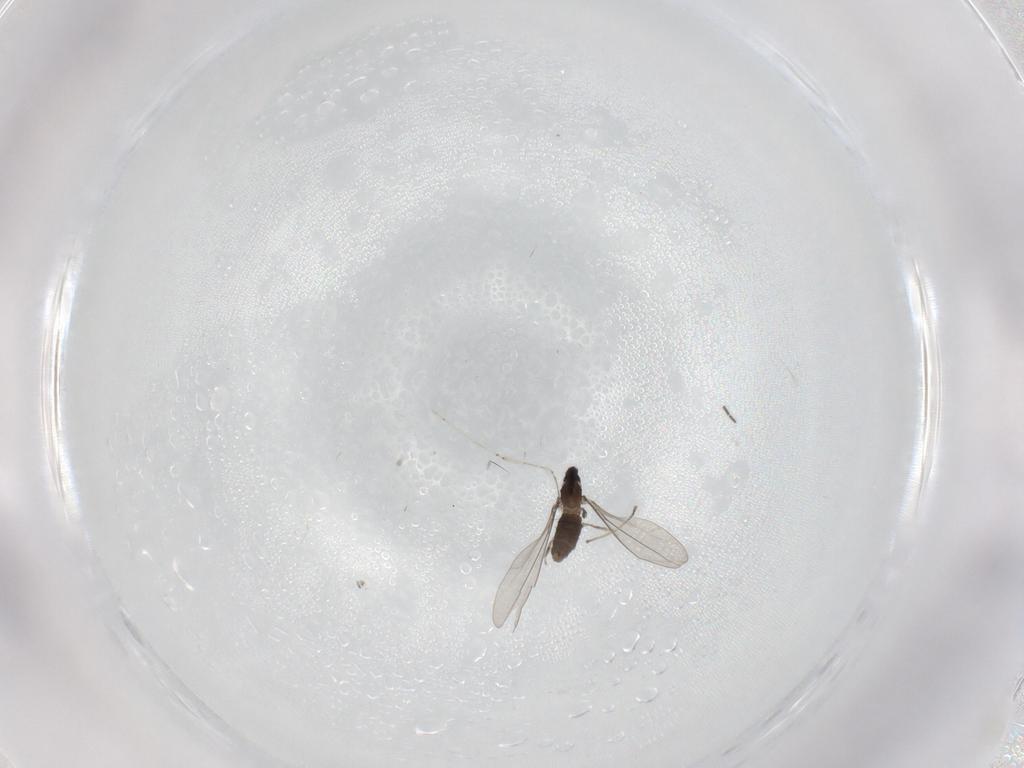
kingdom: Animalia
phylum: Arthropoda
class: Insecta
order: Diptera
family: Sciaridae
